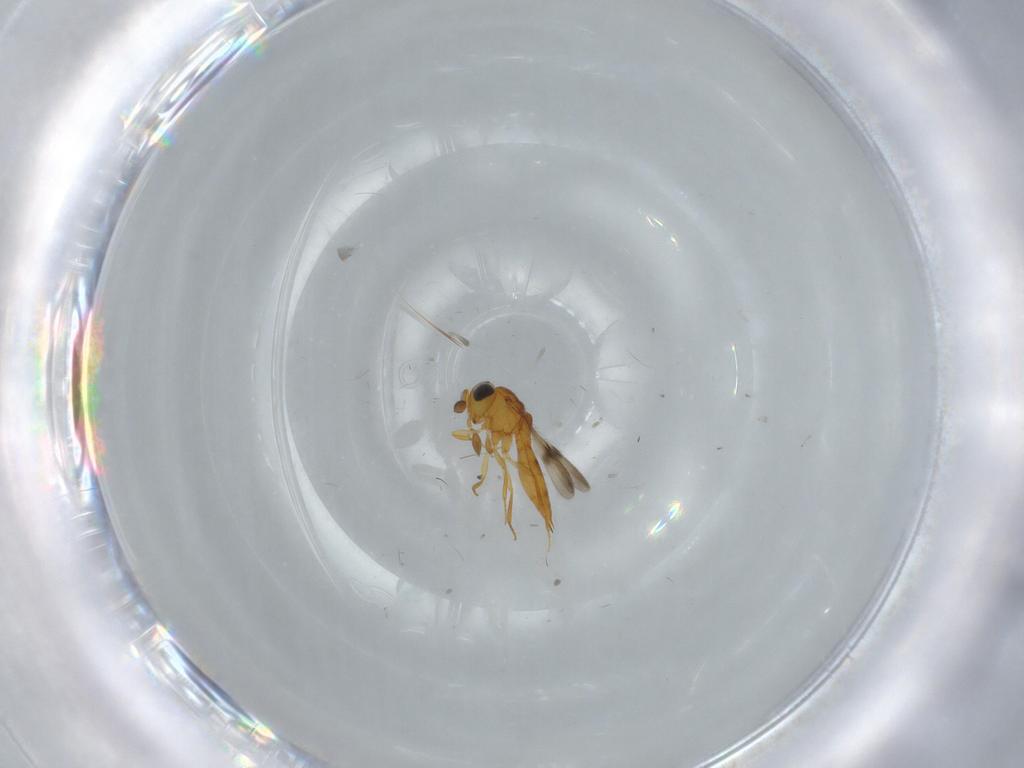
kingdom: Animalia
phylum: Arthropoda
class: Insecta
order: Hymenoptera
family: Scelionidae
